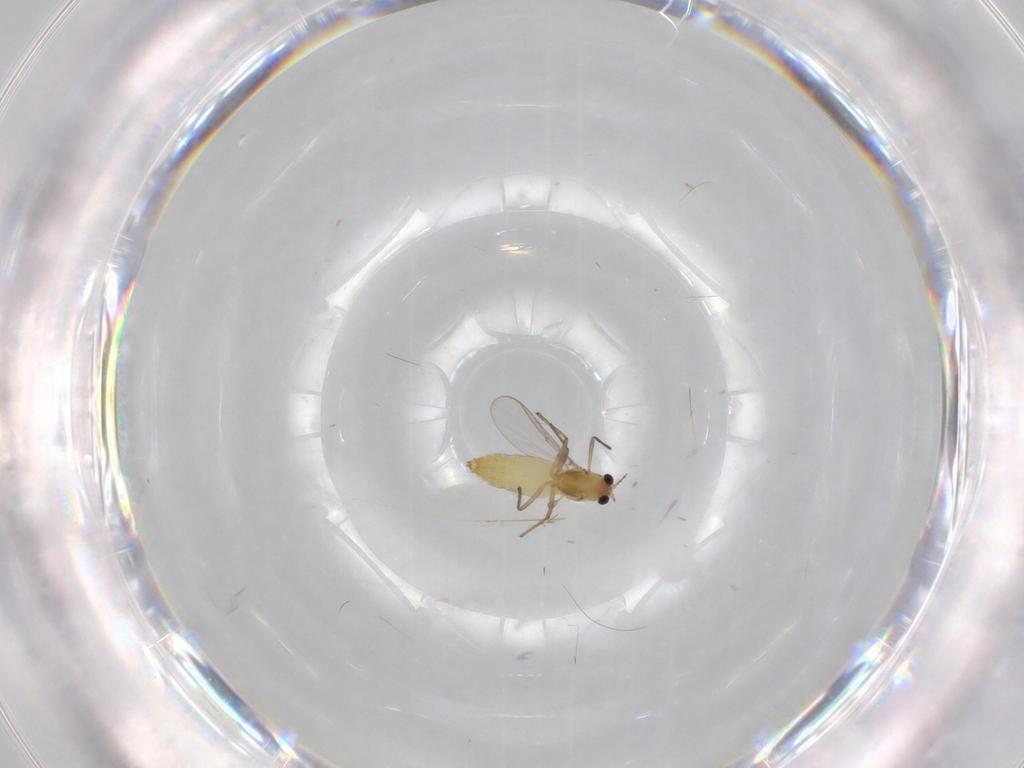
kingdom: Animalia
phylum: Arthropoda
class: Insecta
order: Diptera
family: Chironomidae
